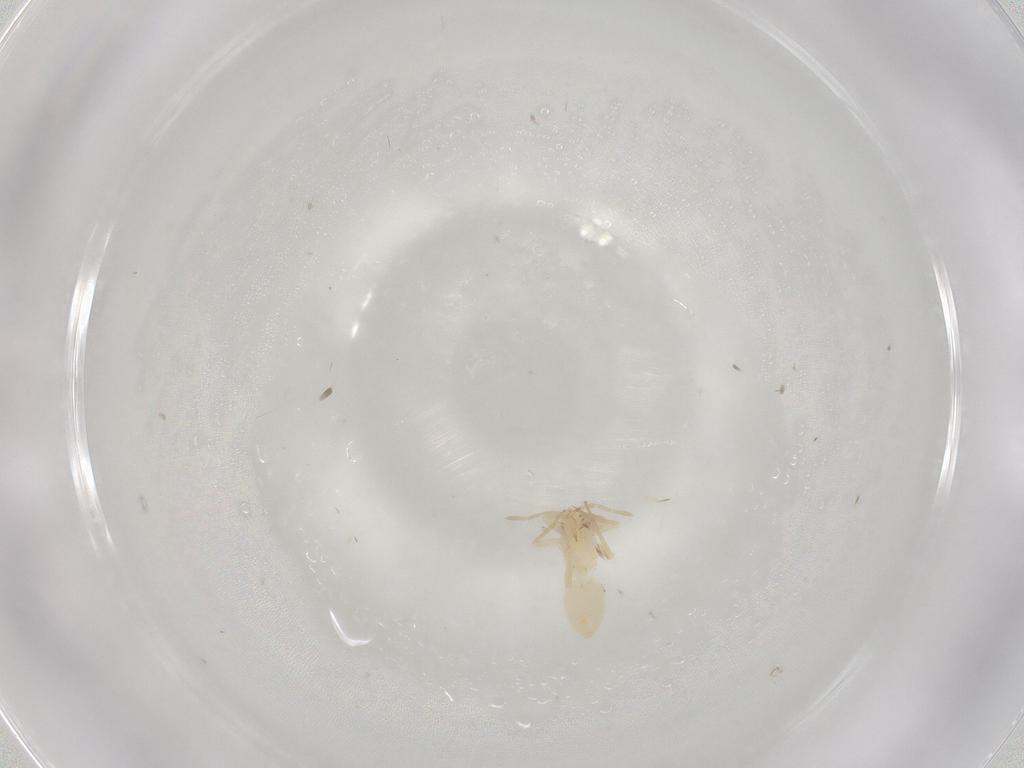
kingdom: Animalia
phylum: Arthropoda
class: Insecta
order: Hemiptera
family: Miridae
